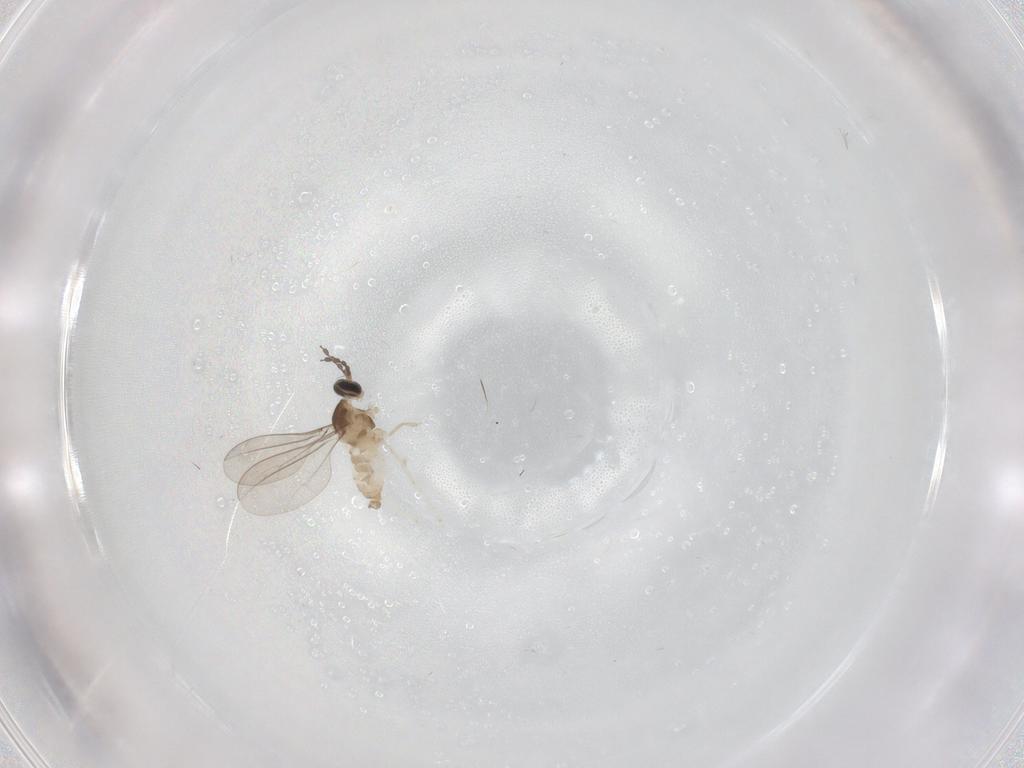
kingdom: Animalia
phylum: Arthropoda
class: Insecta
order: Diptera
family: Cecidomyiidae
